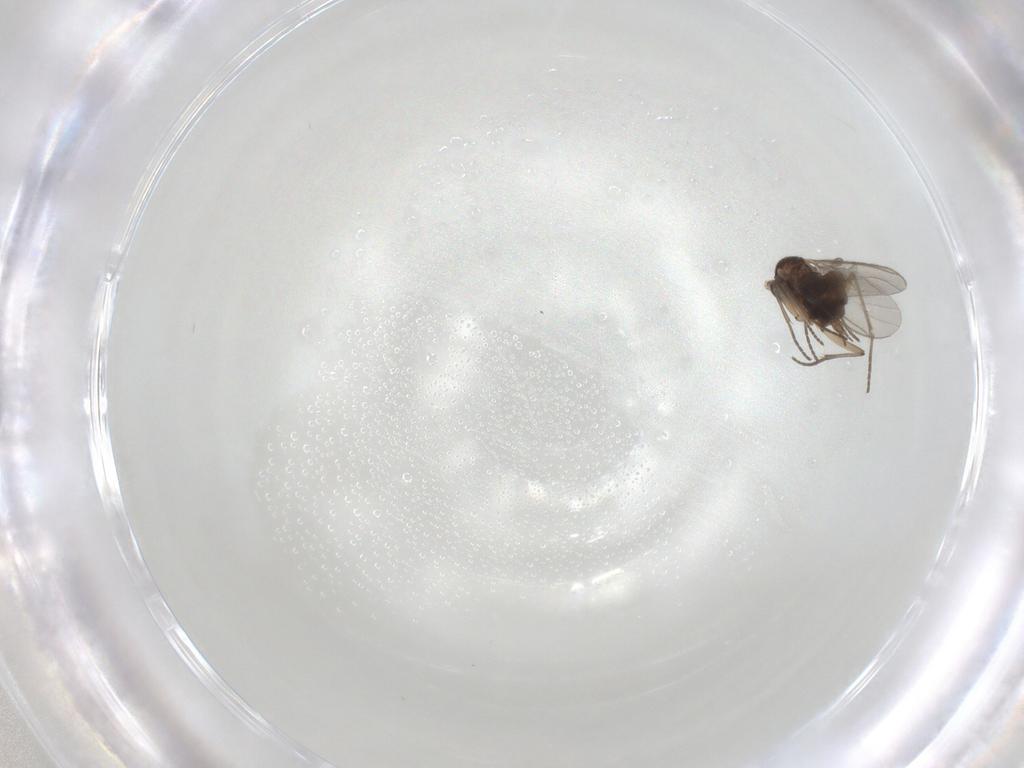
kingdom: Animalia
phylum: Arthropoda
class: Insecta
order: Diptera
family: Sciaridae
